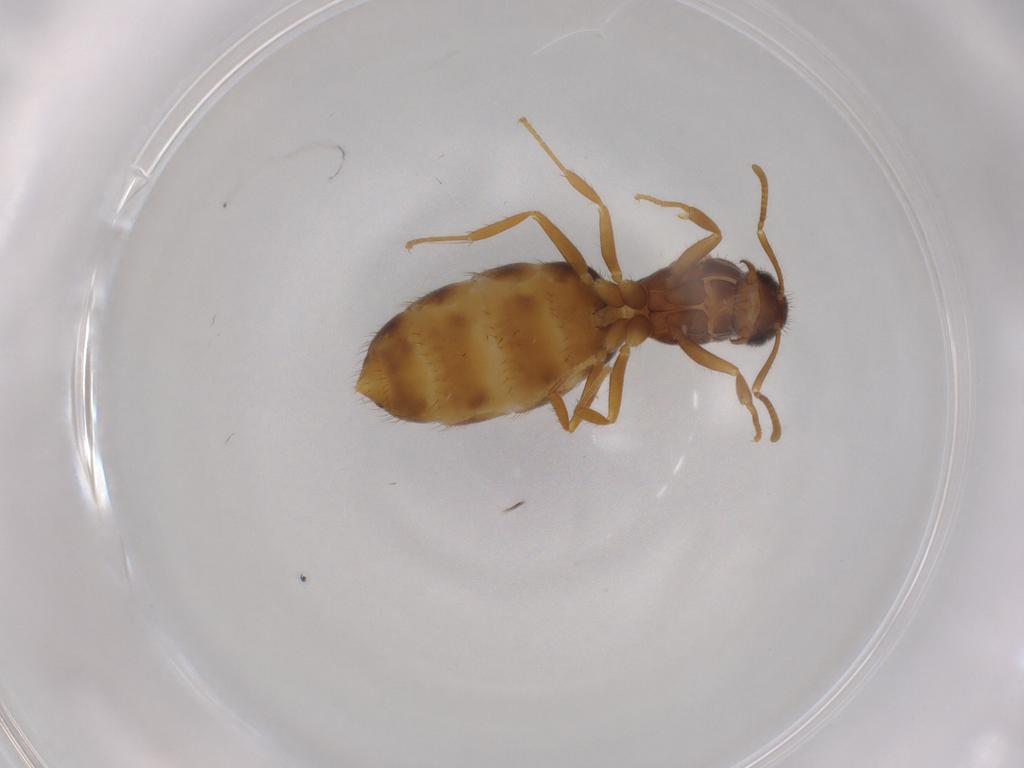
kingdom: Animalia
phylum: Arthropoda
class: Insecta
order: Hymenoptera
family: Formicidae
